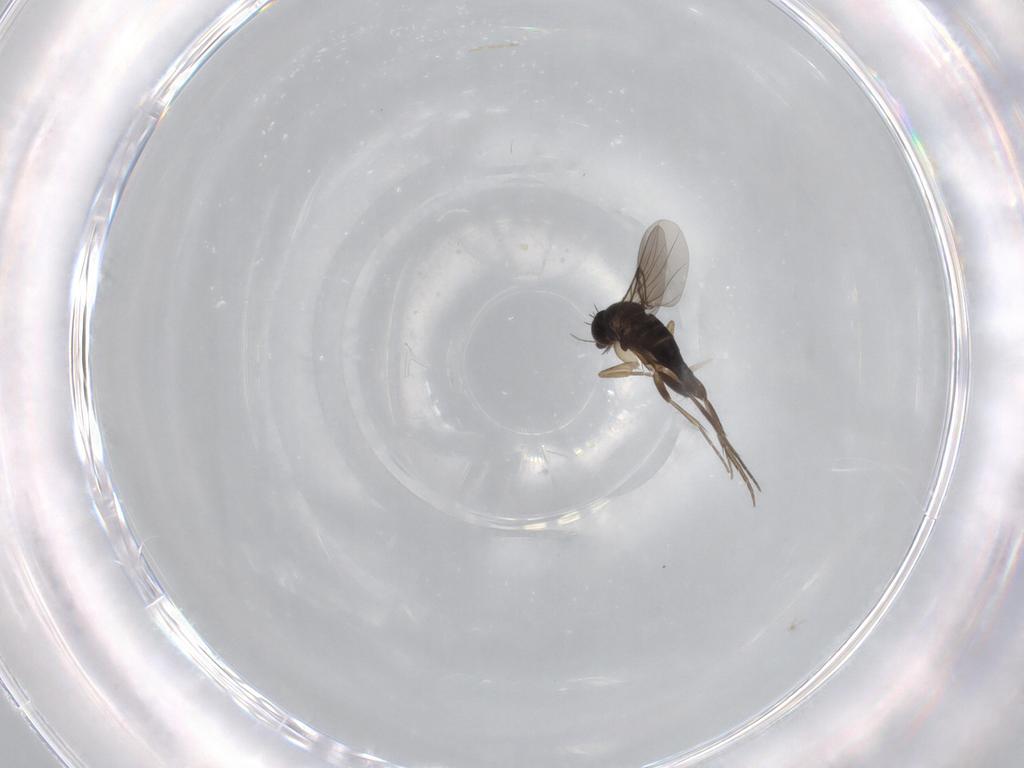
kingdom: Animalia
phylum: Arthropoda
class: Insecta
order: Diptera
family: Phoridae
